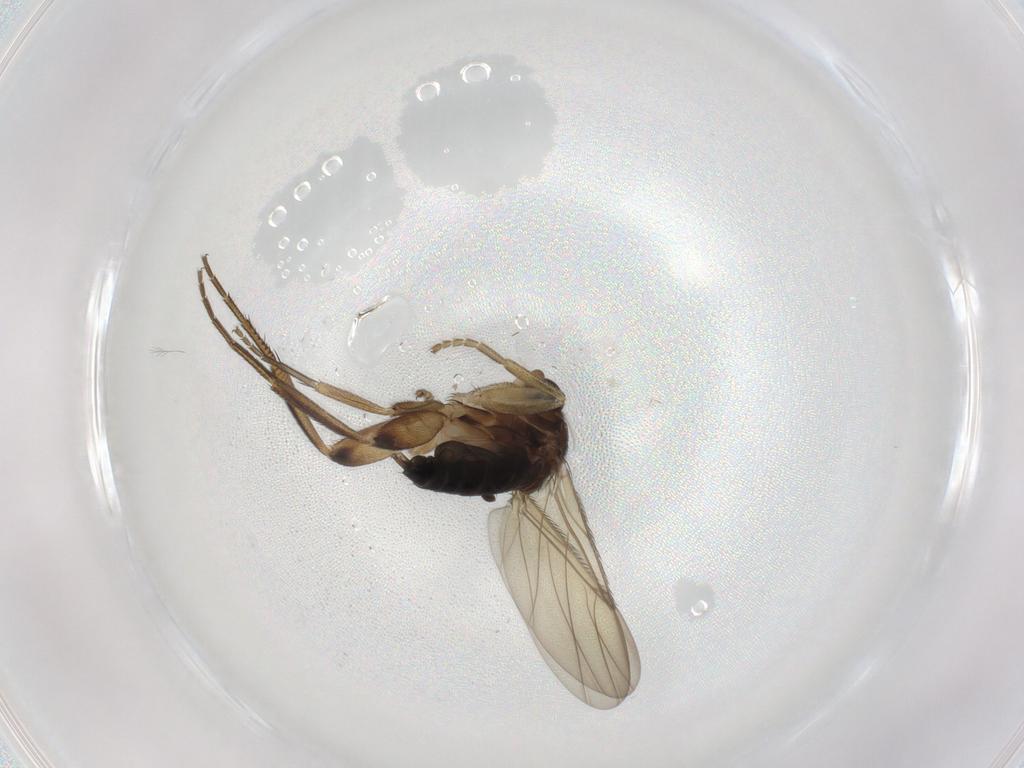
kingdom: Animalia
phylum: Arthropoda
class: Insecta
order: Diptera
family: Phoridae
